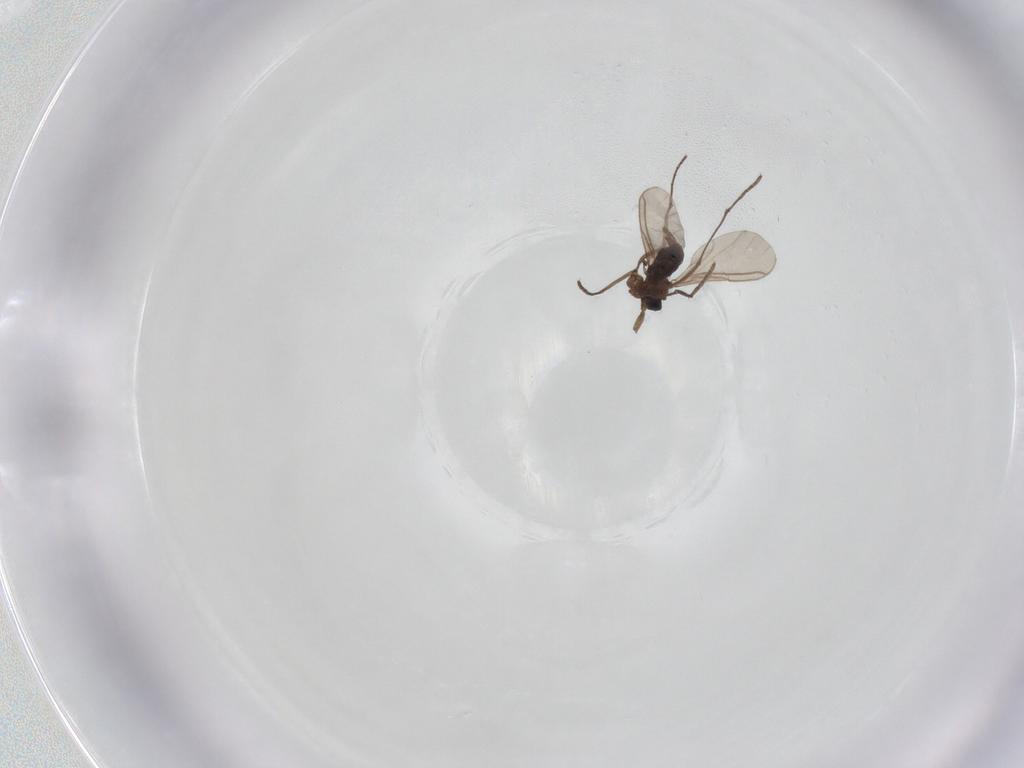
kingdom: Animalia
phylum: Arthropoda
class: Insecta
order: Diptera
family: Sciaridae
